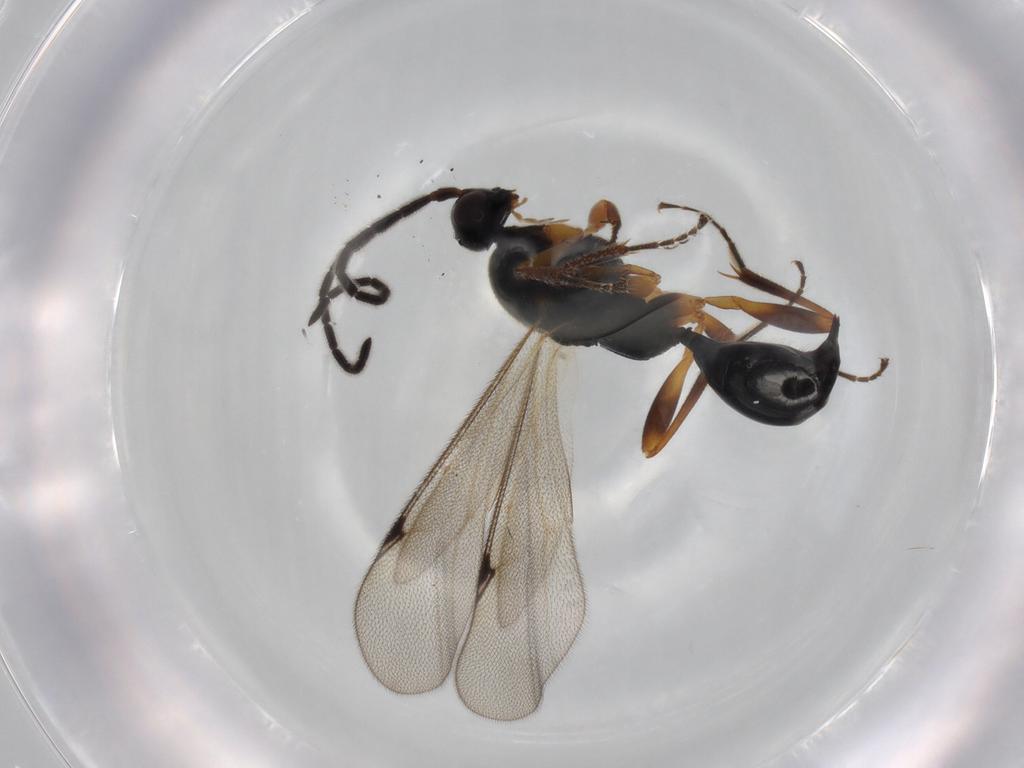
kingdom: Animalia
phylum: Arthropoda
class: Insecta
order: Hymenoptera
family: Proctotrupidae
